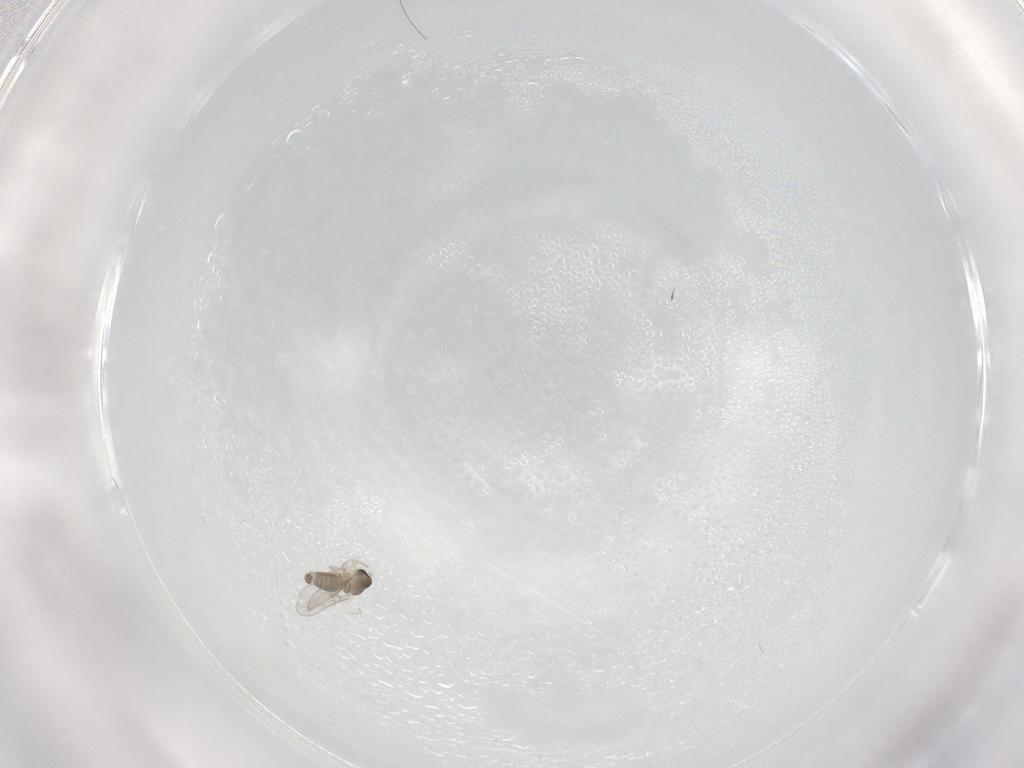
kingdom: Animalia
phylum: Arthropoda
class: Insecta
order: Diptera
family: Cecidomyiidae
